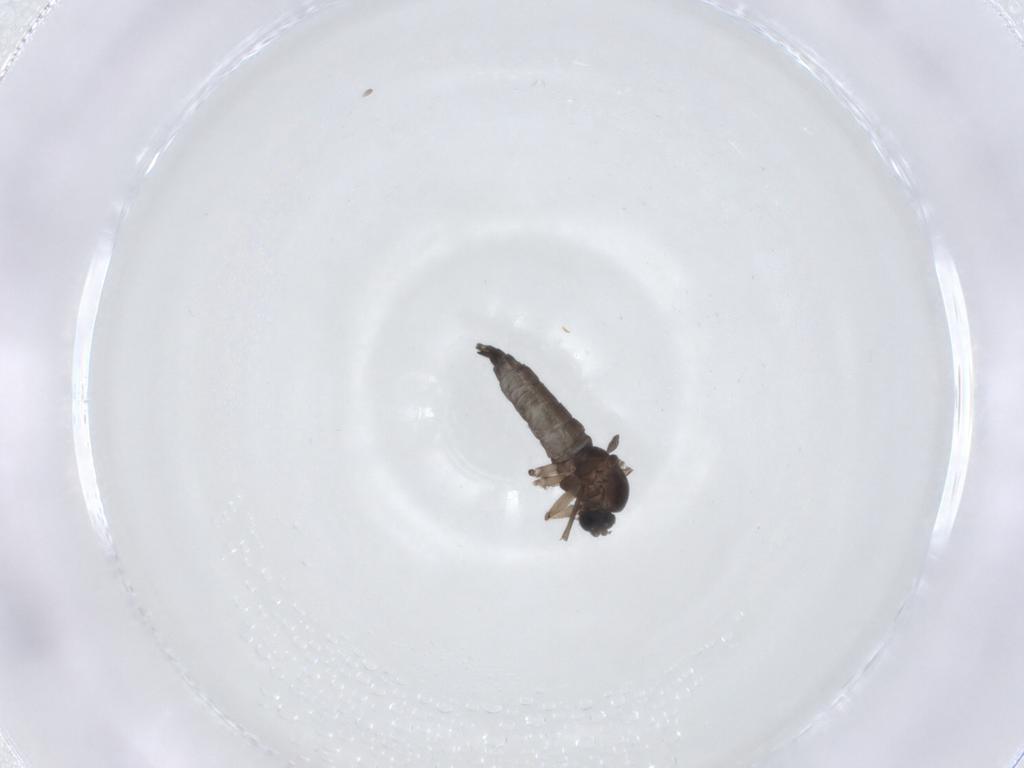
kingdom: Animalia
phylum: Arthropoda
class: Insecta
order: Diptera
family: Sciaridae
